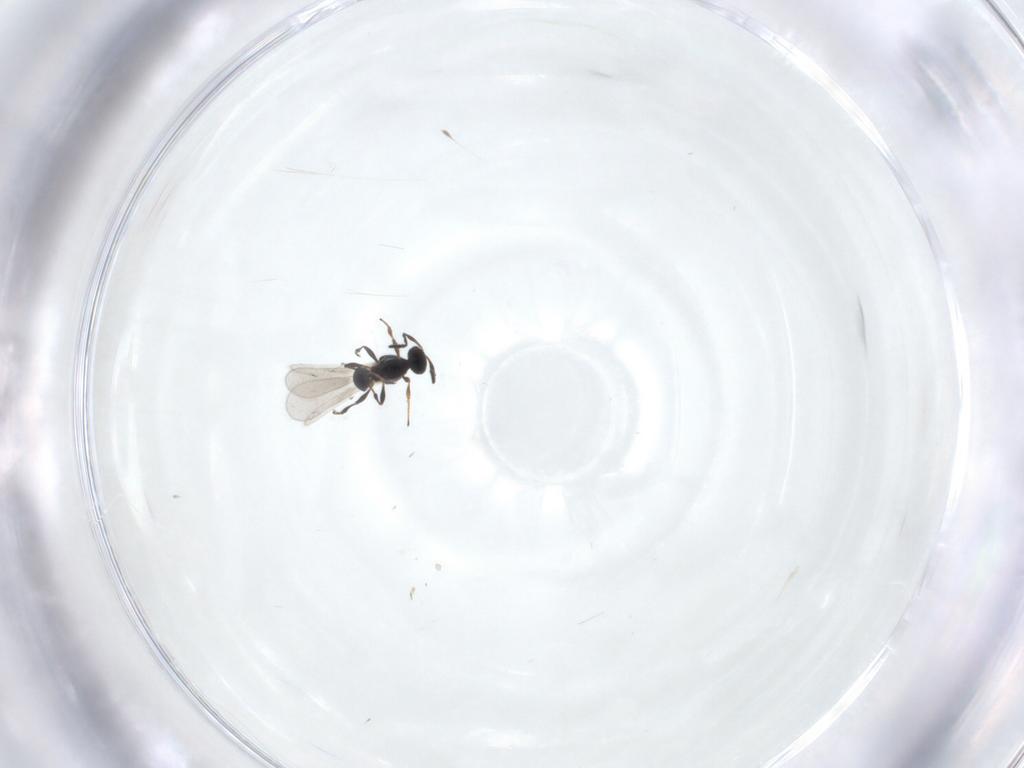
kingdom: Animalia
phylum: Arthropoda
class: Insecta
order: Hymenoptera
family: Platygastridae
